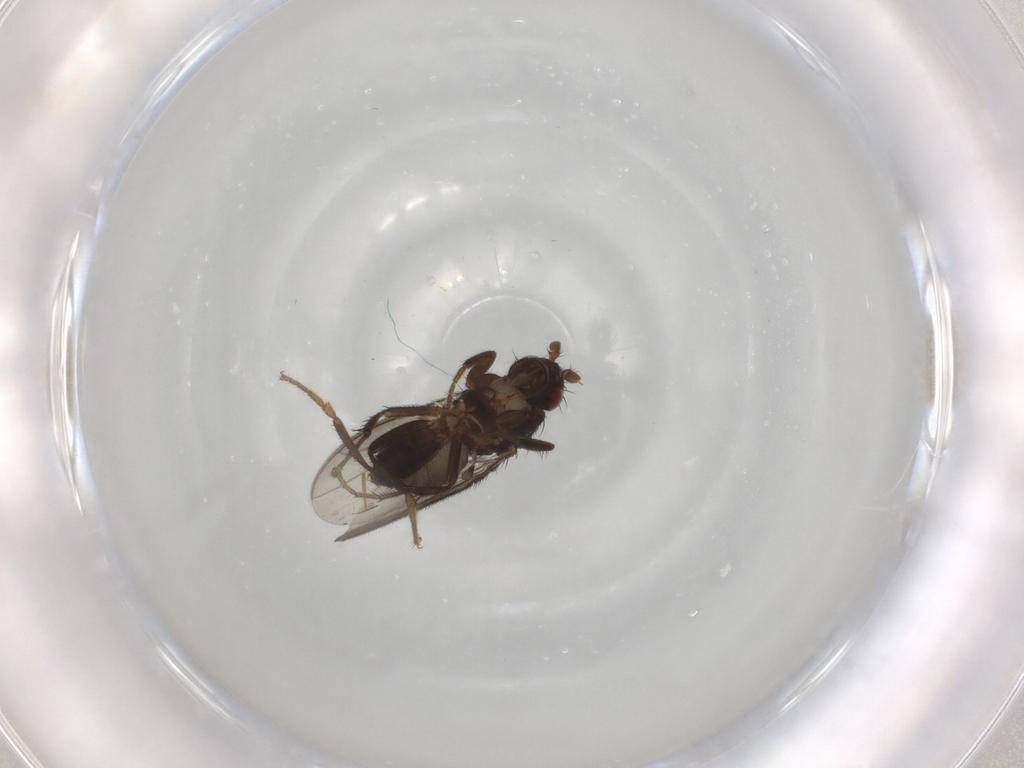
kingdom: Animalia
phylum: Arthropoda
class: Insecta
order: Diptera
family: Sphaeroceridae
